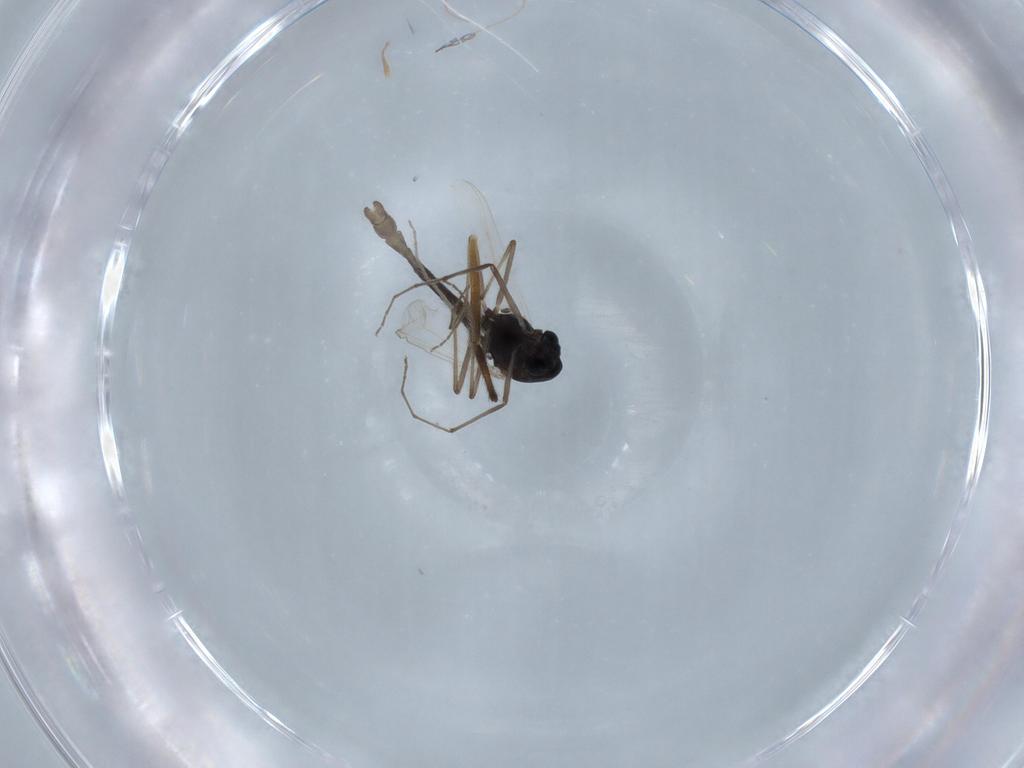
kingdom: Animalia
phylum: Arthropoda
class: Insecta
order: Diptera
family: Chironomidae
